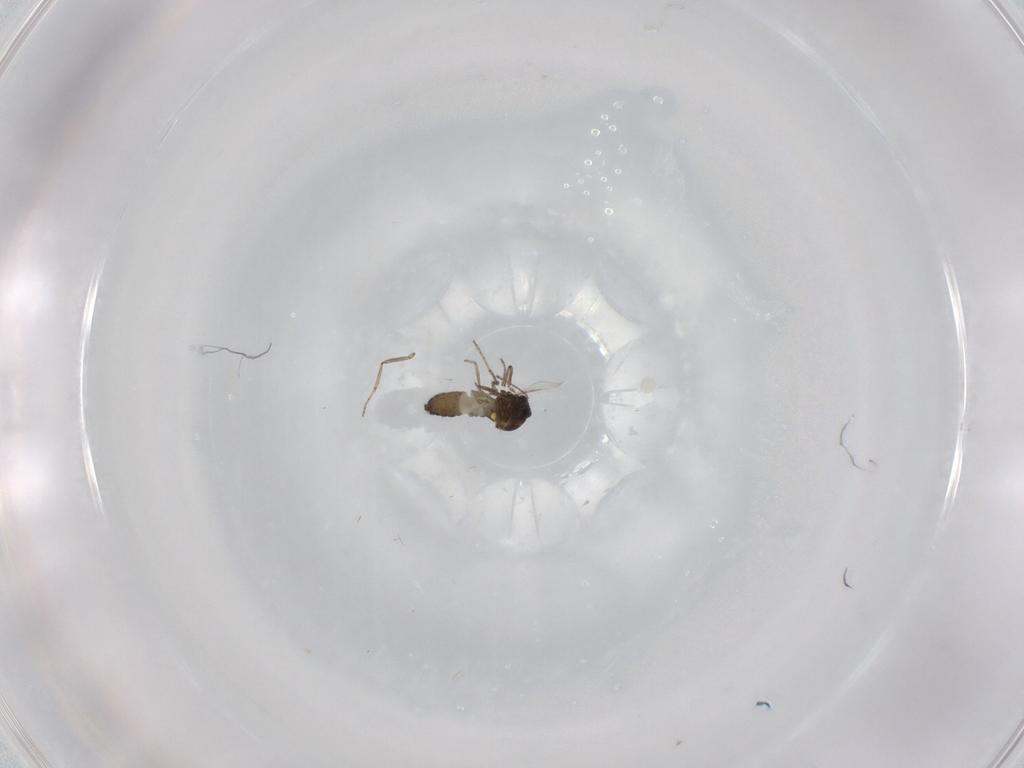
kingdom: Animalia
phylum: Arthropoda
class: Insecta
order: Diptera
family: Ceratopogonidae
